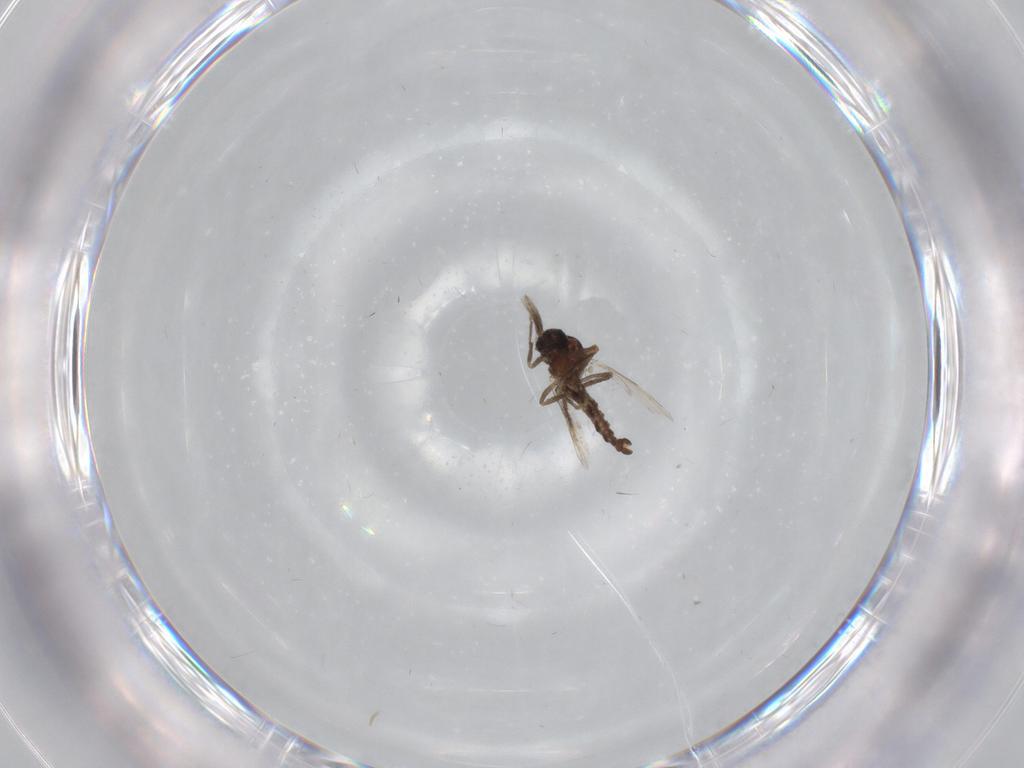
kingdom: Animalia
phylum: Arthropoda
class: Insecta
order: Diptera
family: Ceratopogonidae
